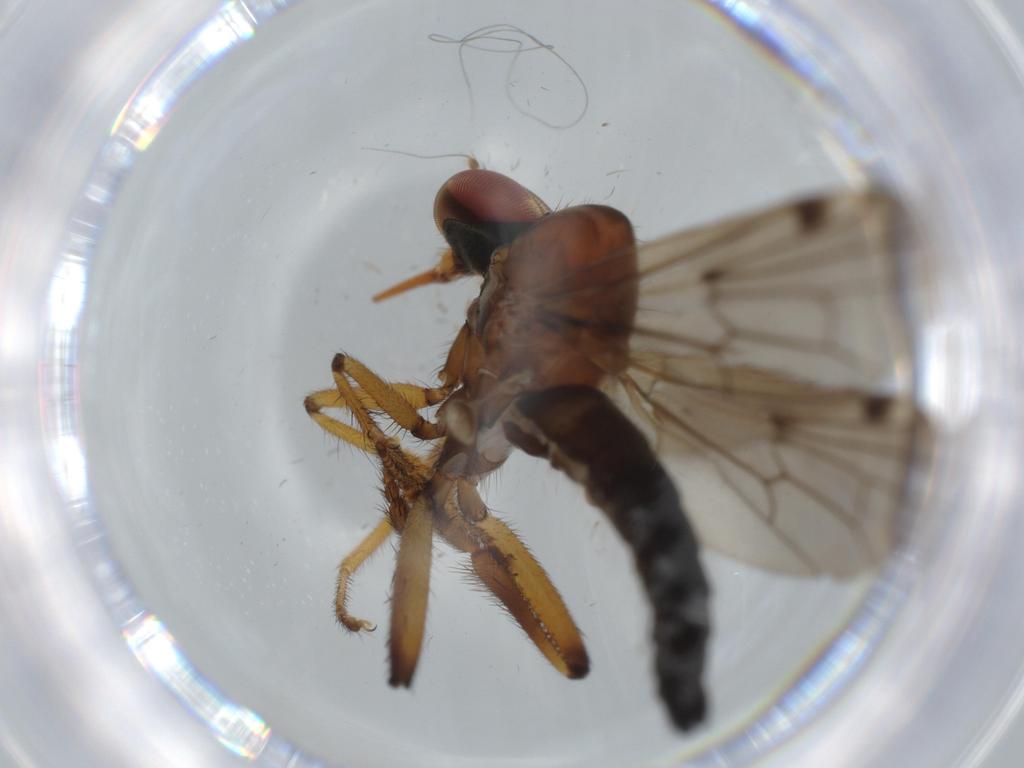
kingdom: Animalia
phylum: Arthropoda
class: Insecta
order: Diptera
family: Hybotidae
